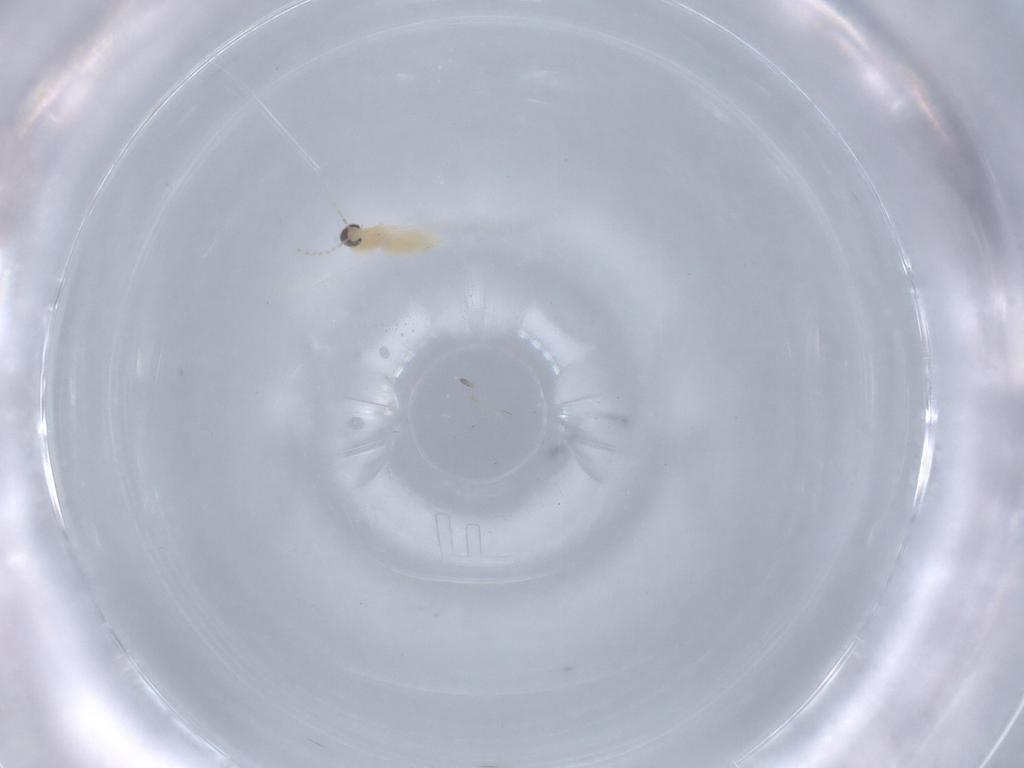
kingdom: Animalia
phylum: Arthropoda
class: Insecta
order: Diptera
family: Cecidomyiidae
